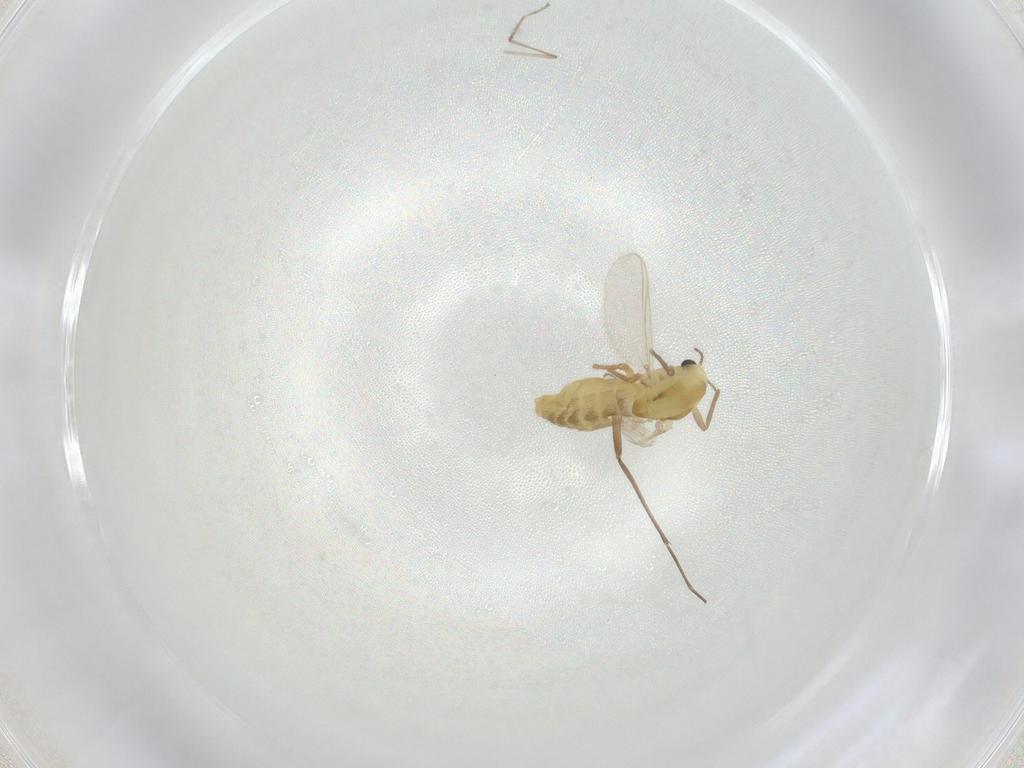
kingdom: Animalia
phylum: Arthropoda
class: Insecta
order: Diptera
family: Chironomidae
